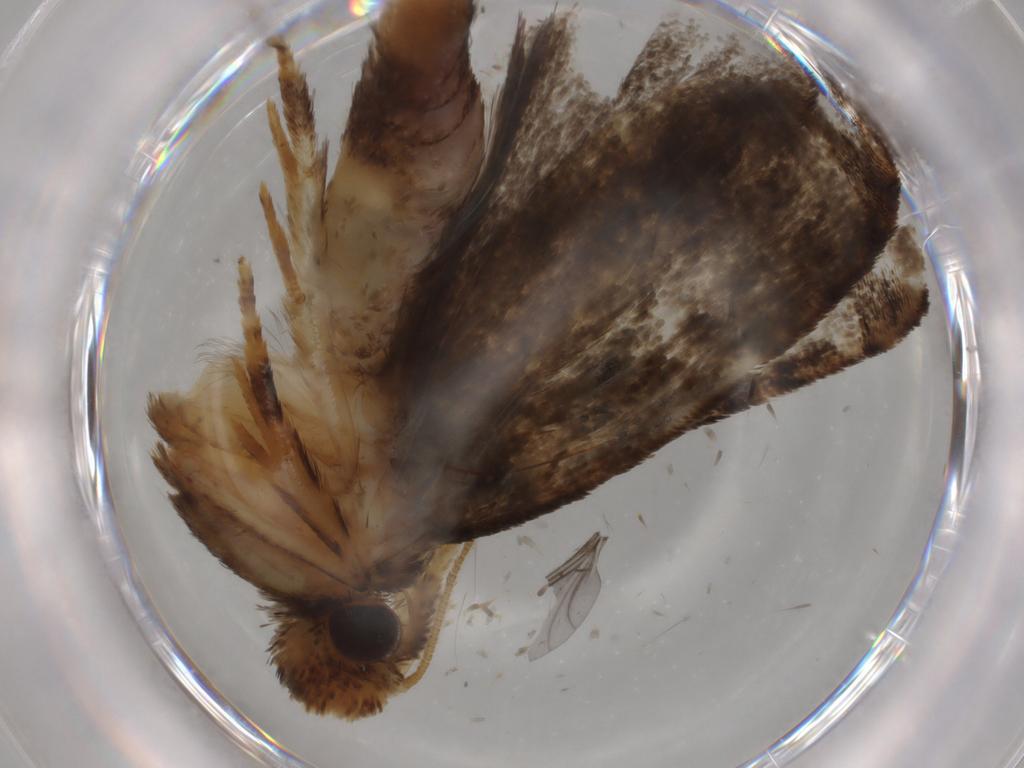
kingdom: Animalia
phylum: Arthropoda
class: Insecta
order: Lepidoptera
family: Tineidae
